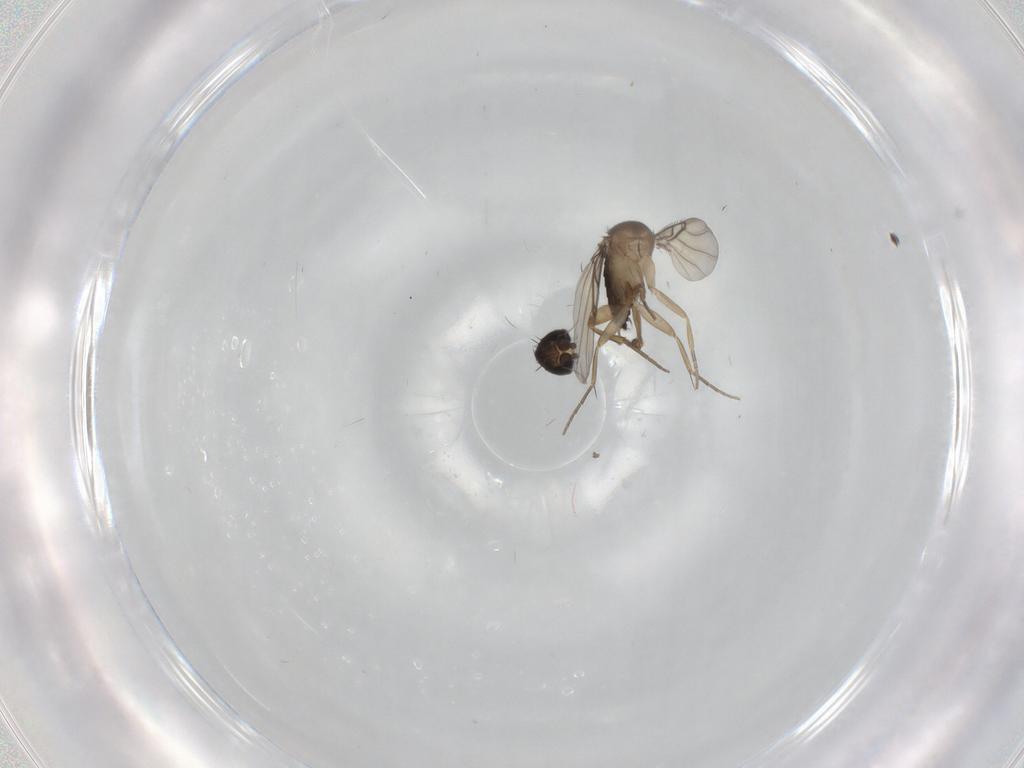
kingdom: Animalia
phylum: Arthropoda
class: Insecta
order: Diptera
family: Phoridae
